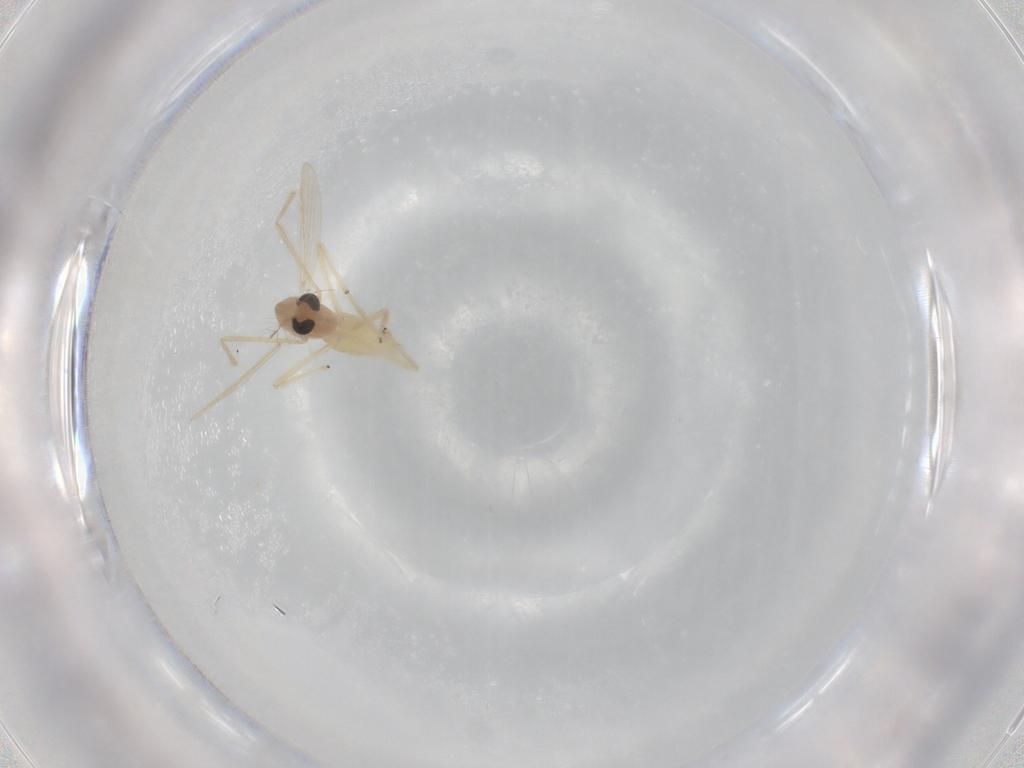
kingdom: Animalia
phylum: Arthropoda
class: Insecta
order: Diptera
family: Chironomidae
